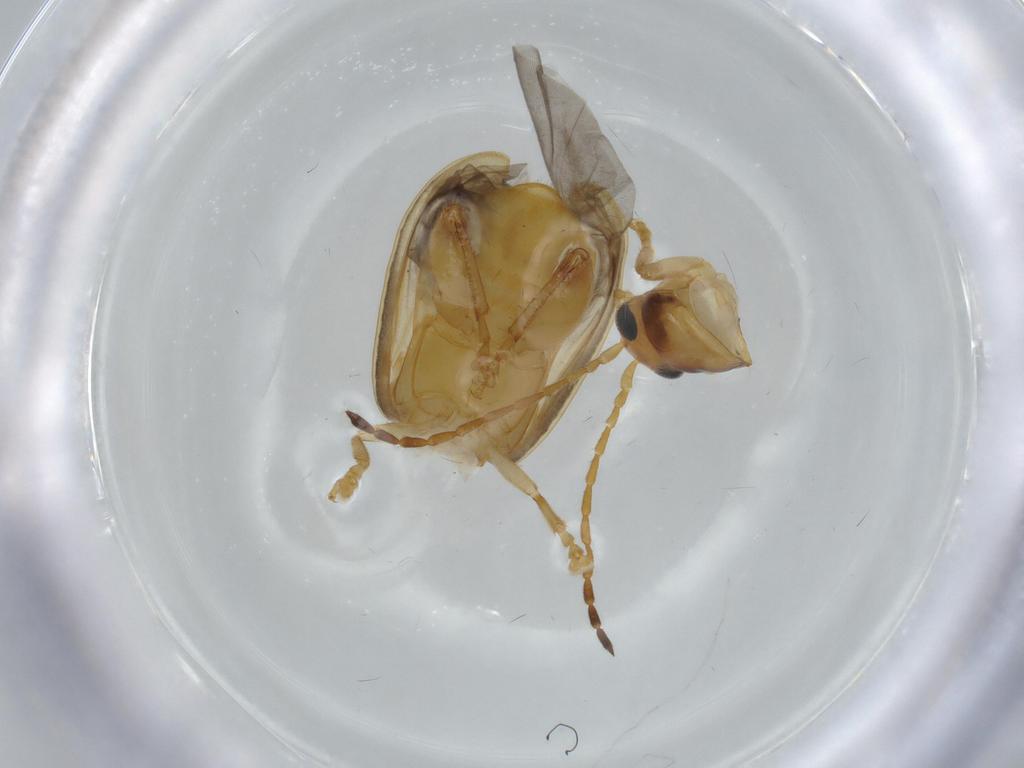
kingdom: Animalia
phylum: Arthropoda
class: Insecta
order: Coleoptera
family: Chrysomelidae
